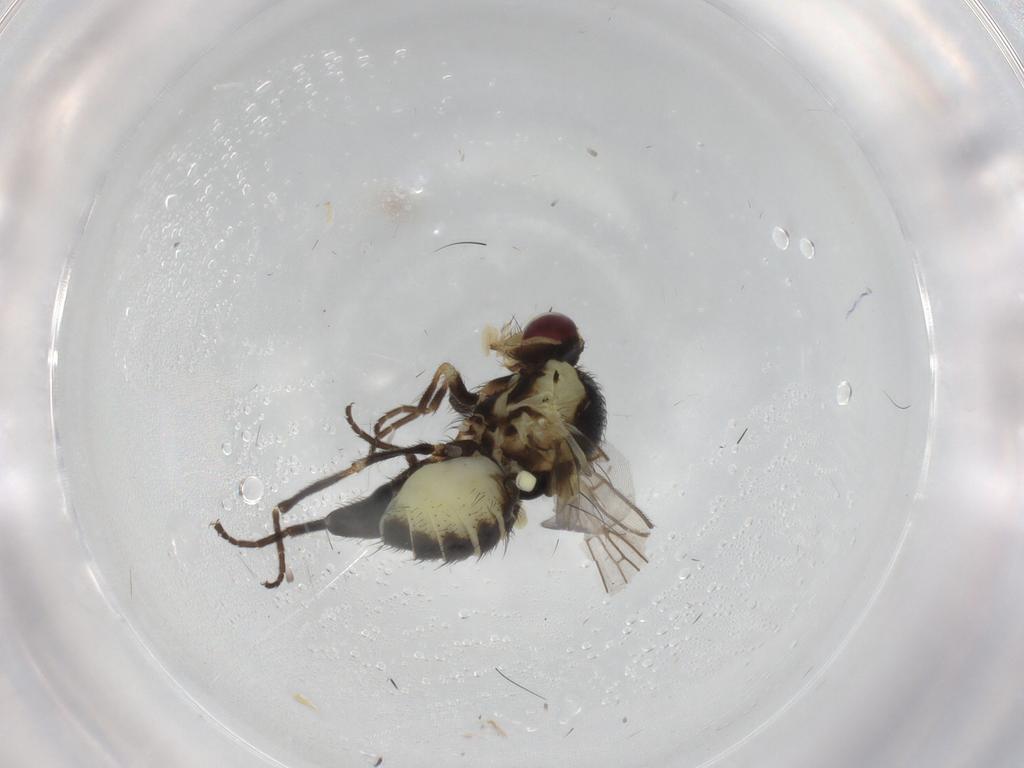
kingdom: Animalia
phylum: Arthropoda
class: Insecta
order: Diptera
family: Agromyzidae
